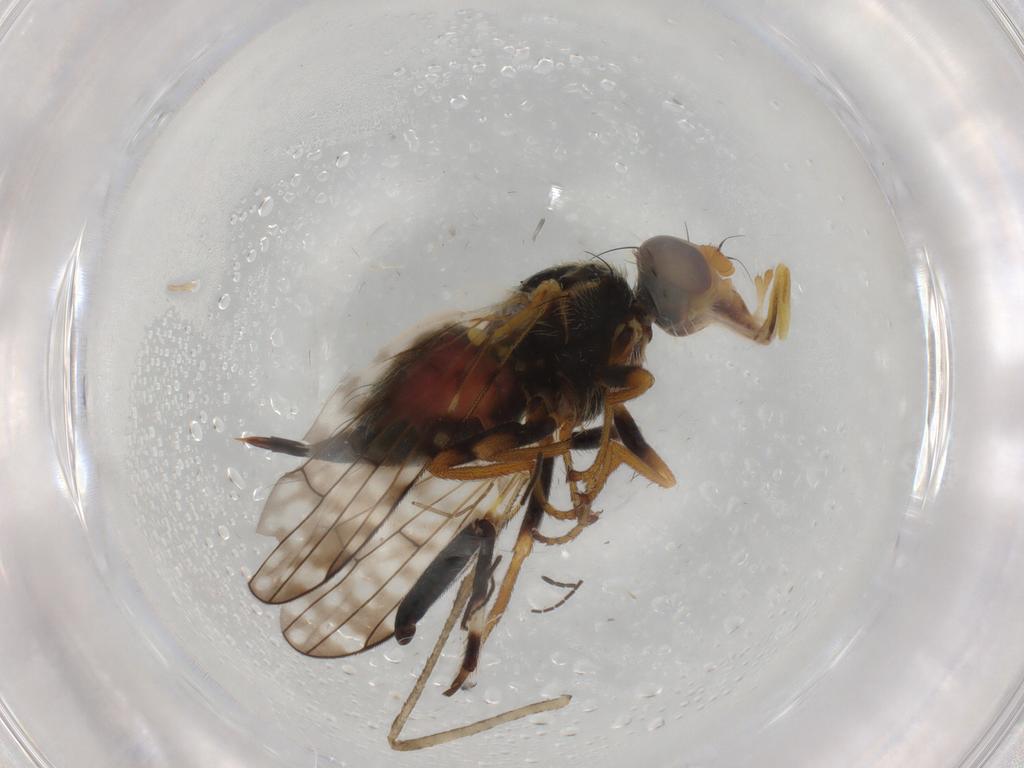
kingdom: Animalia
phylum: Arthropoda
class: Insecta
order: Diptera
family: Tephritidae
